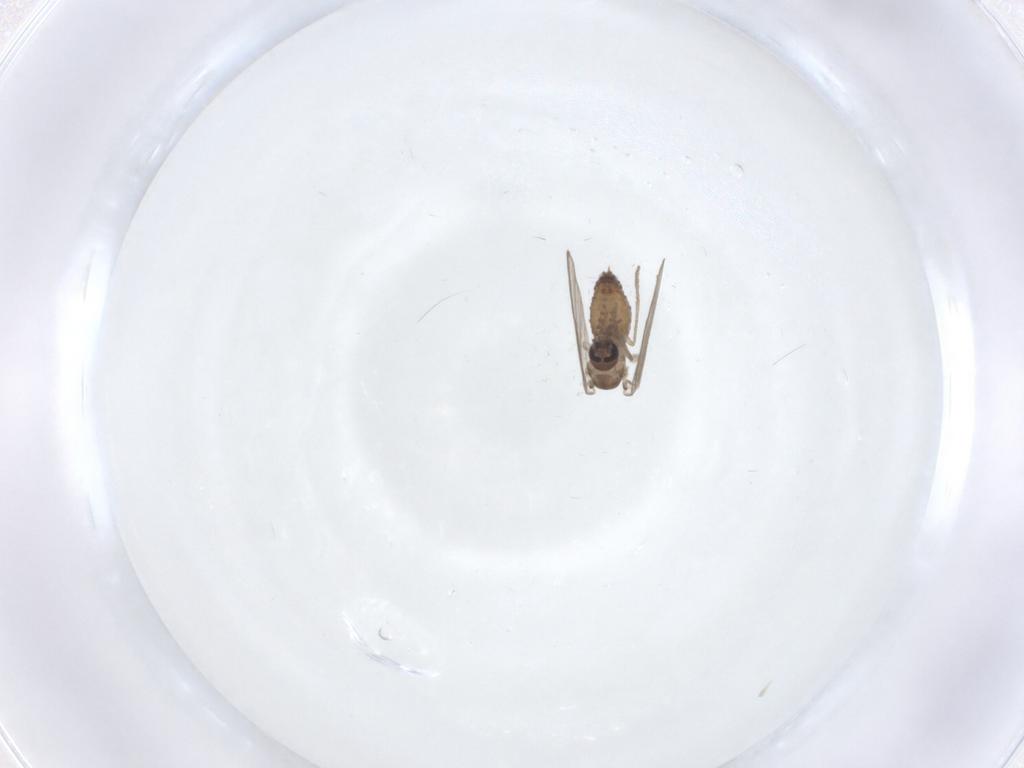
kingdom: Animalia
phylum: Arthropoda
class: Insecta
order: Diptera
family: Psychodidae
